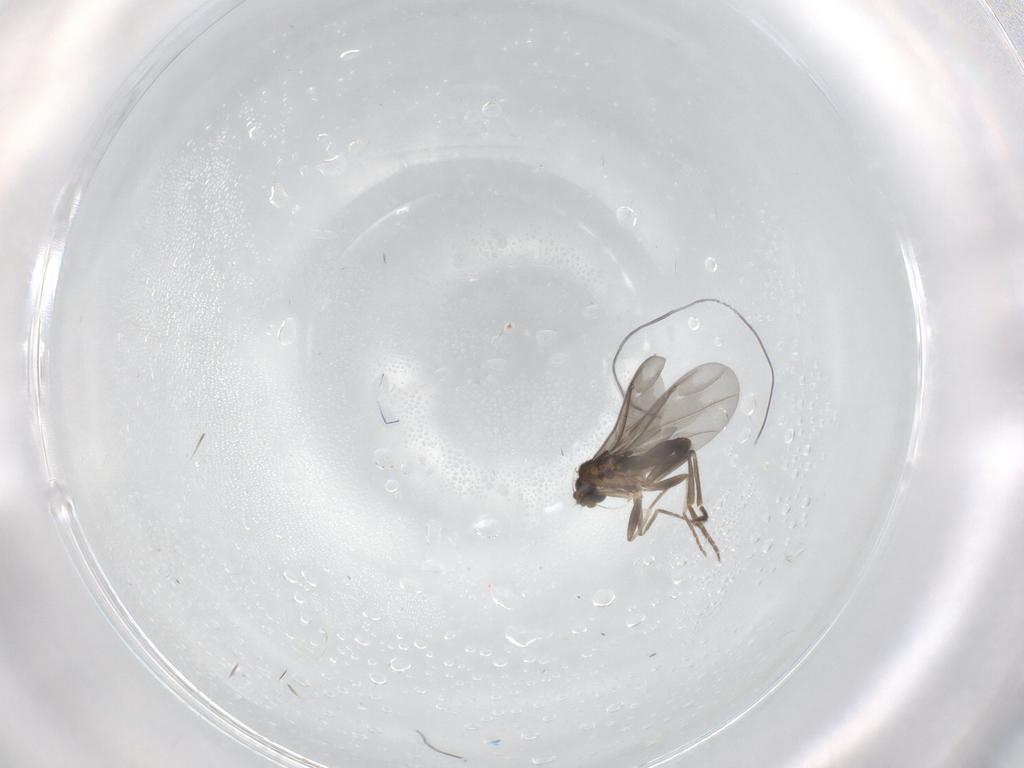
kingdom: Animalia
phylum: Arthropoda
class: Insecta
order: Diptera
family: Phoridae
